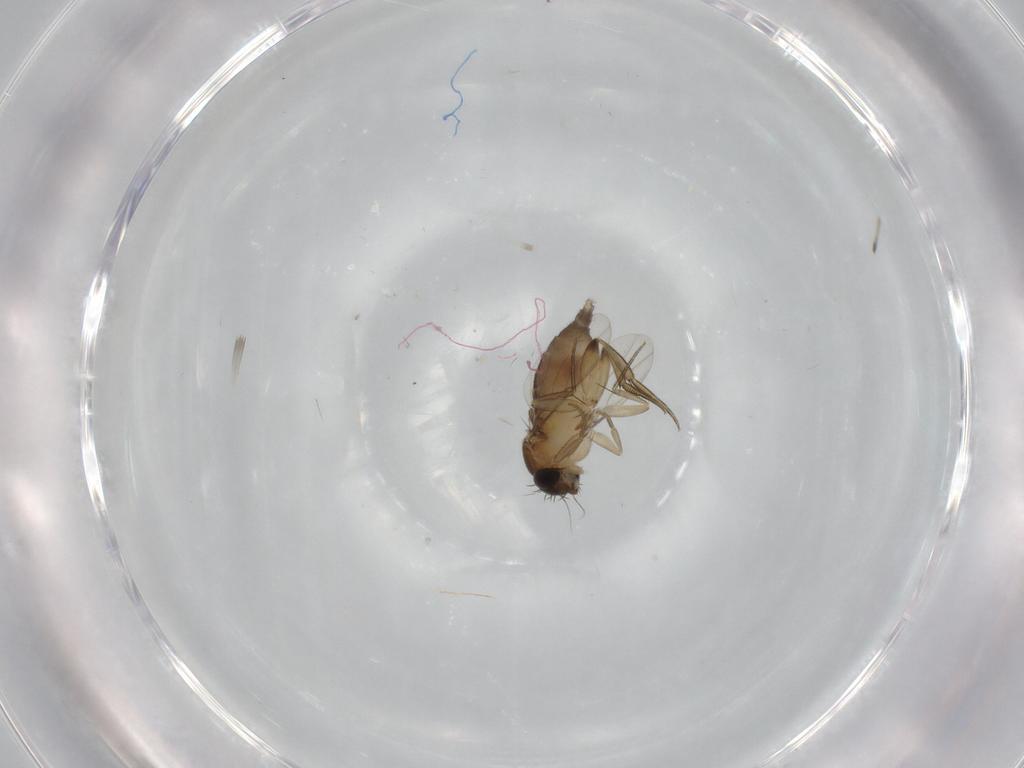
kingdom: Animalia
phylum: Arthropoda
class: Insecta
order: Diptera
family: Phoridae
